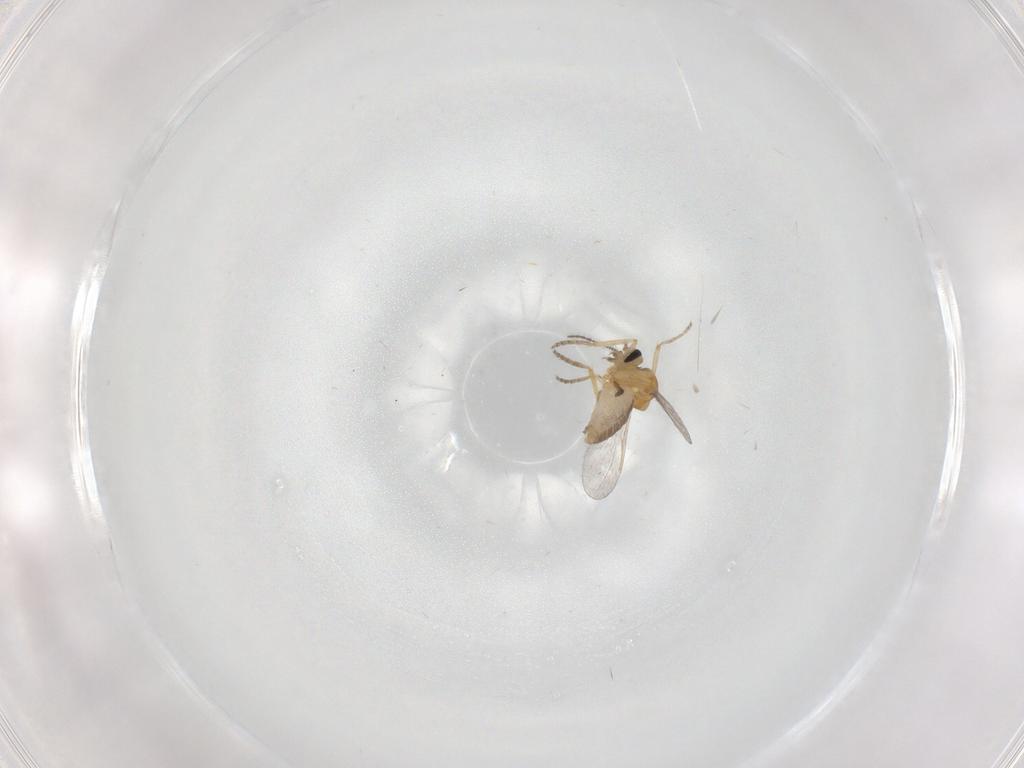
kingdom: Animalia
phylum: Arthropoda
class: Insecta
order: Diptera
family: Ceratopogonidae
